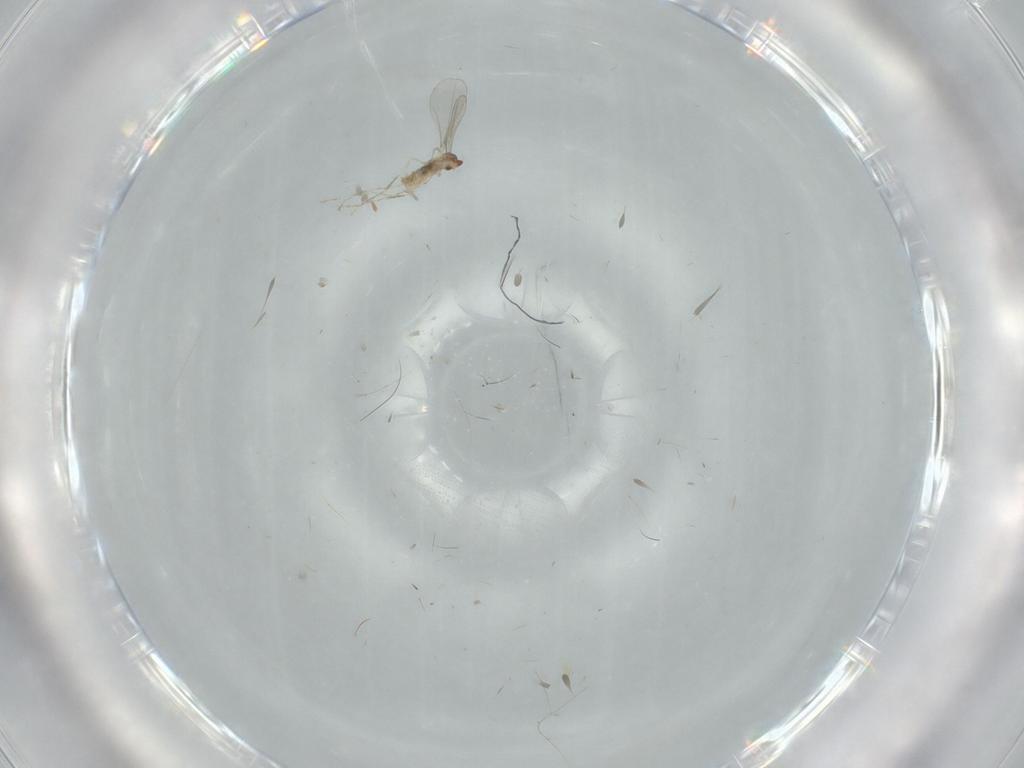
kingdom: Animalia
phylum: Arthropoda
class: Insecta
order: Diptera
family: Cecidomyiidae
